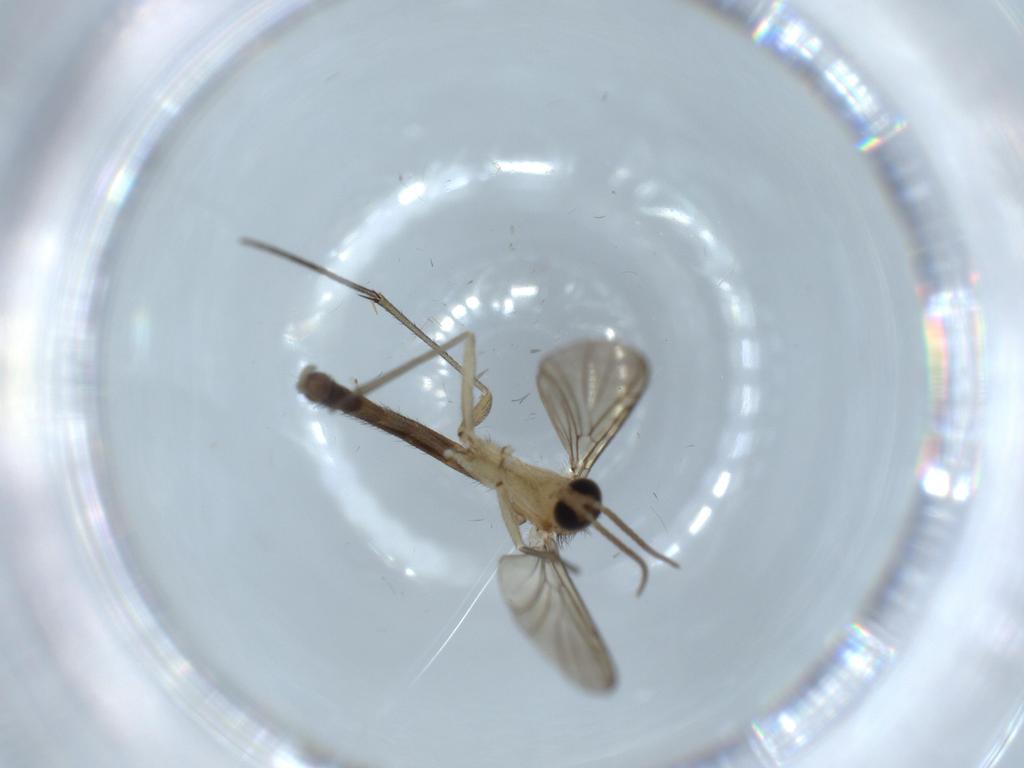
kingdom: Animalia
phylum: Arthropoda
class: Insecta
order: Diptera
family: Keroplatidae
